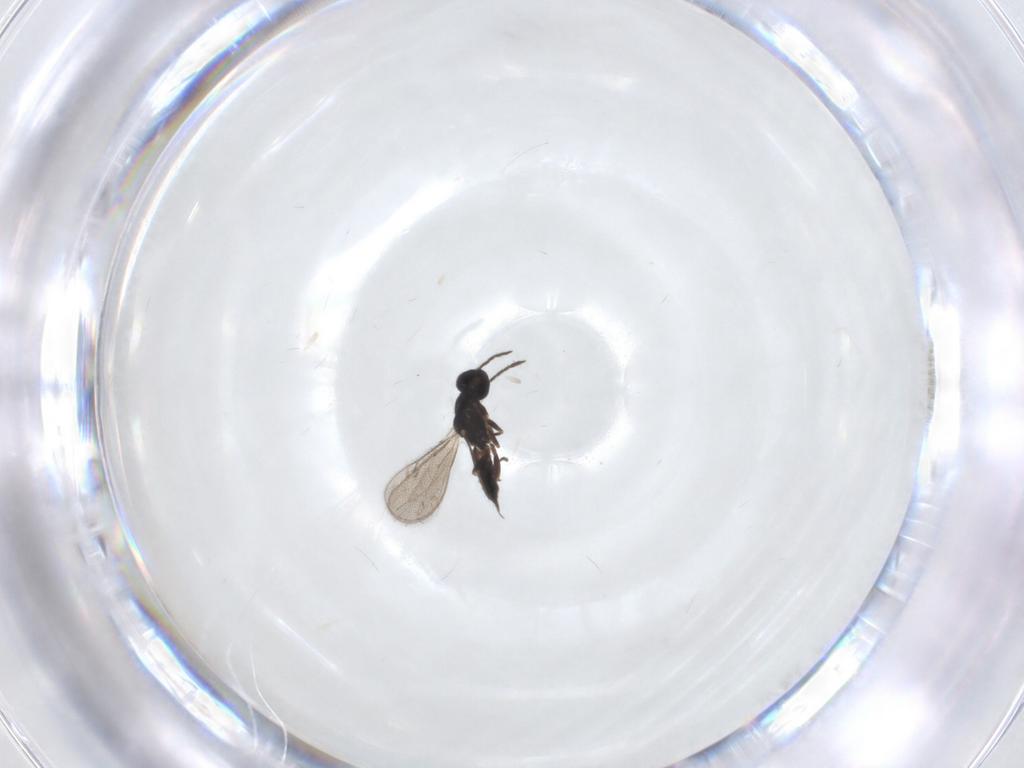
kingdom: Animalia
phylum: Arthropoda
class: Insecta
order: Hymenoptera
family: Eulophidae
